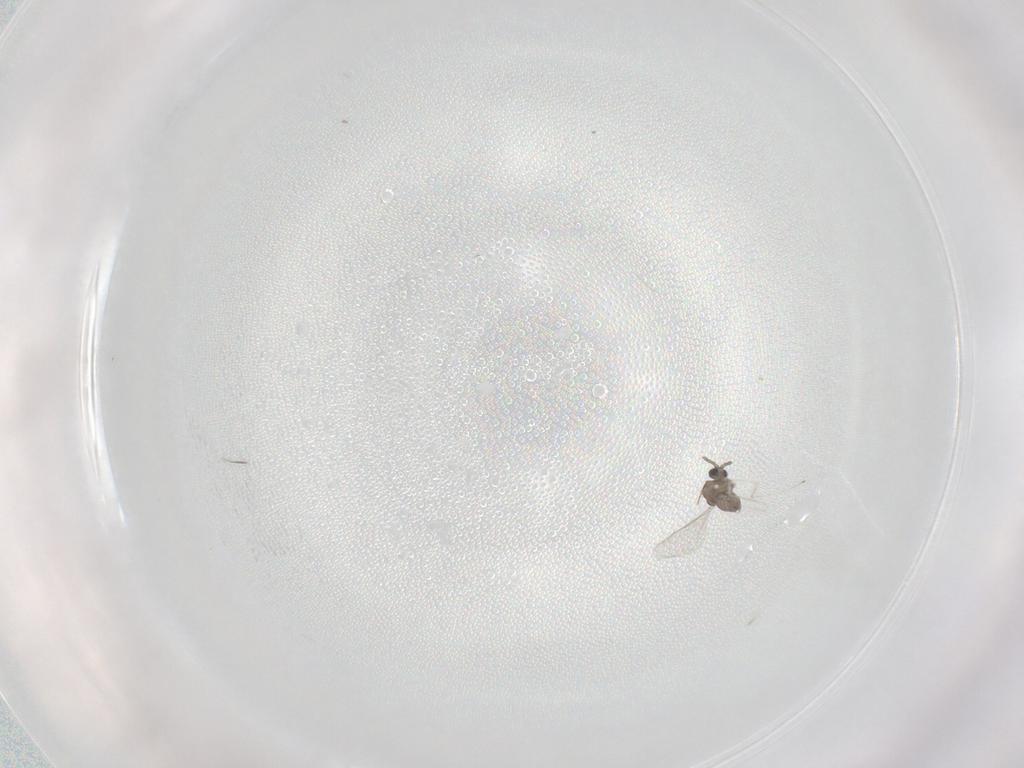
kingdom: Animalia
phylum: Arthropoda
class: Insecta
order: Diptera
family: Cecidomyiidae
